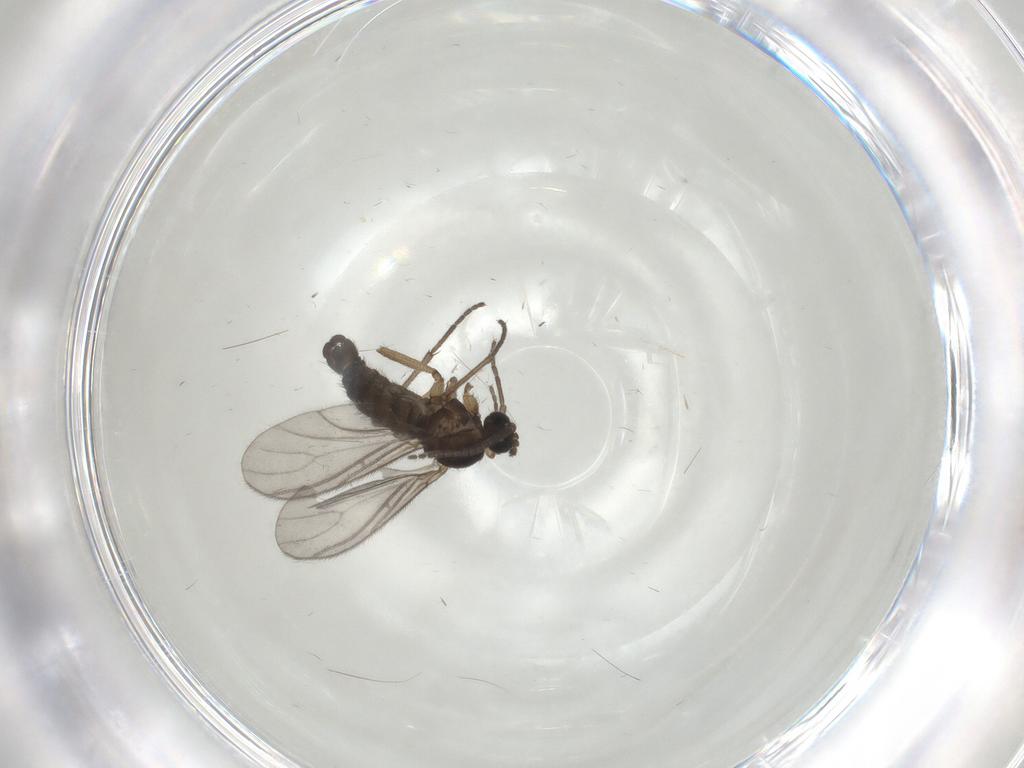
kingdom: Animalia
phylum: Arthropoda
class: Insecta
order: Diptera
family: Sciaridae
